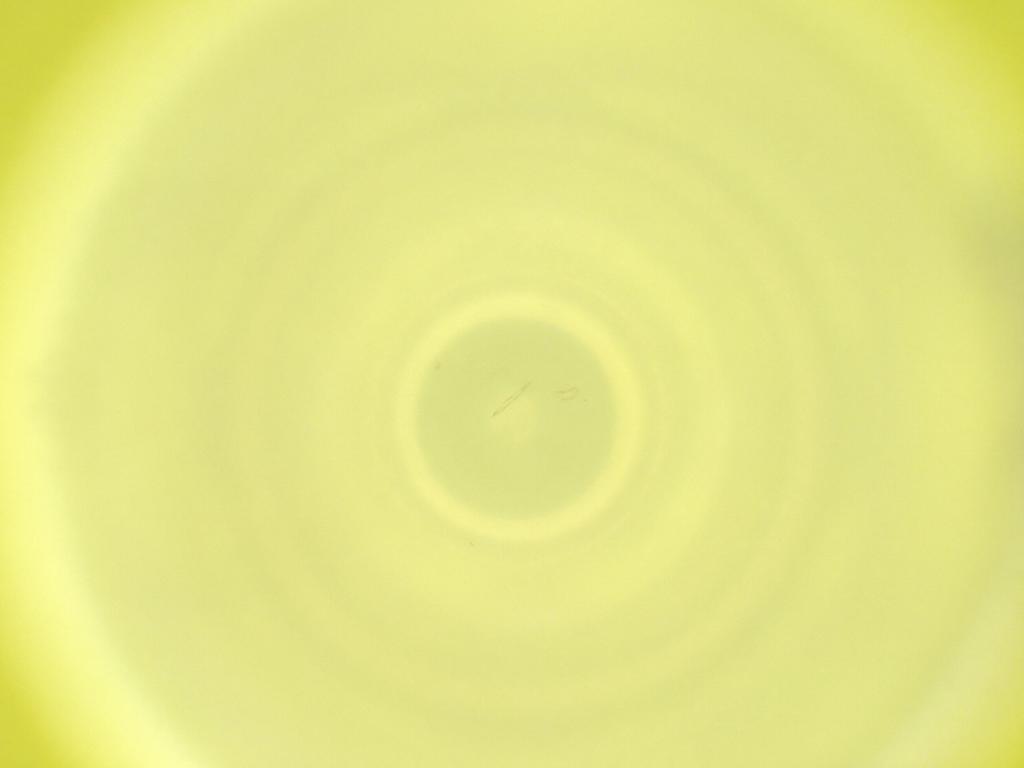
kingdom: Animalia
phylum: Arthropoda
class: Insecta
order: Diptera
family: Cecidomyiidae
